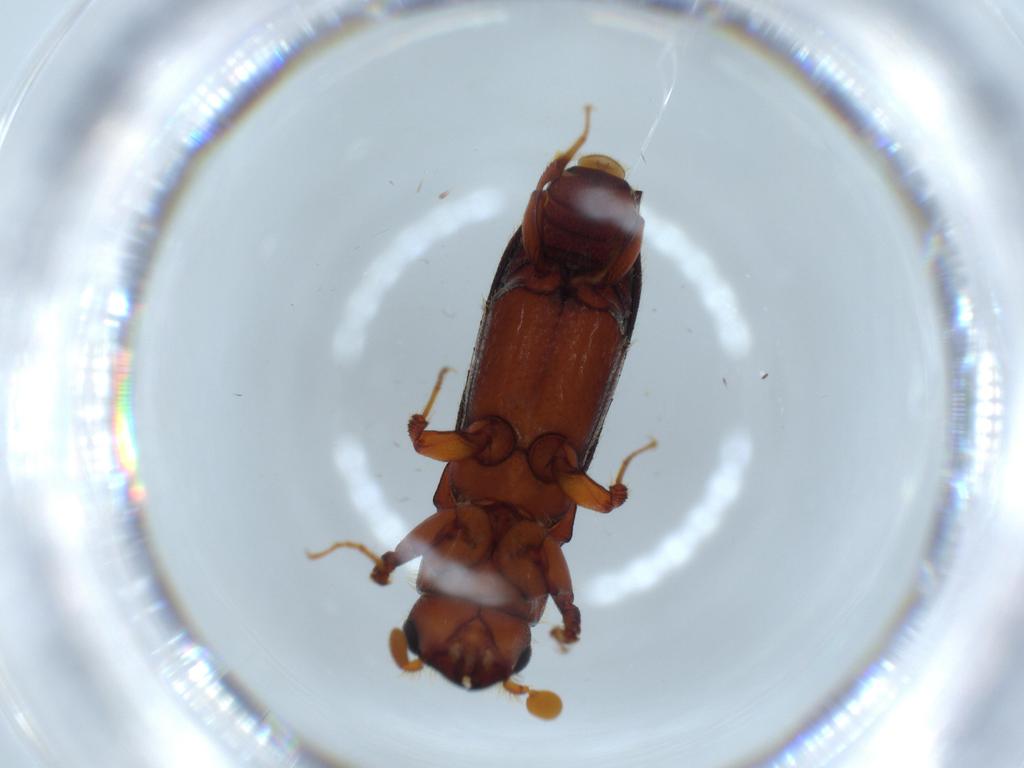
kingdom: Animalia
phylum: Arthropoda
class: Insecta
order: Coleoptera
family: Curculionidae
